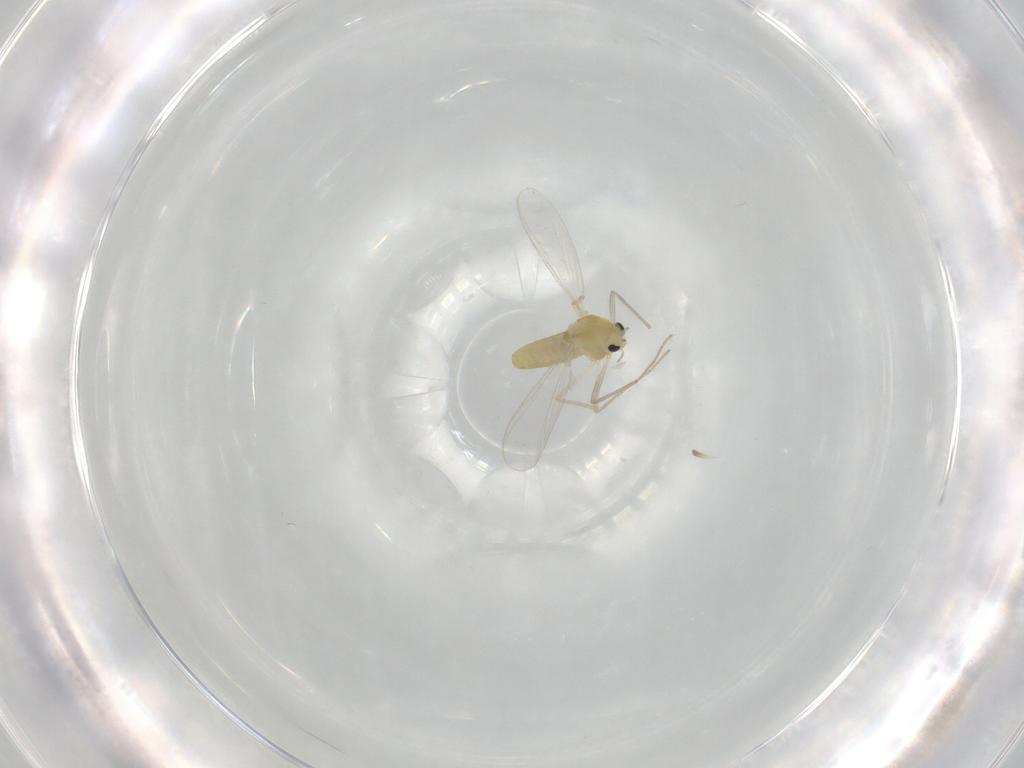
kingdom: Animalia
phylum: Arthropoda
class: Insecta
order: Diptera
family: Chironomidae
